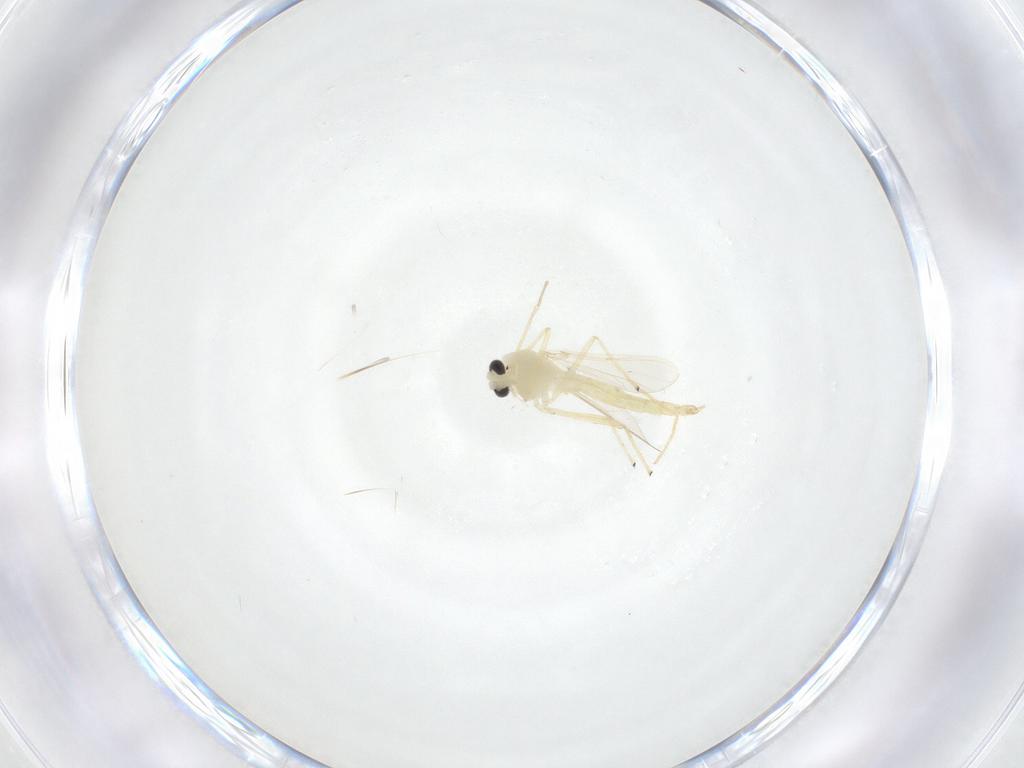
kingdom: Animalia
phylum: Arthropoda
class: Insecta
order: Diptera
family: Chironomidae
